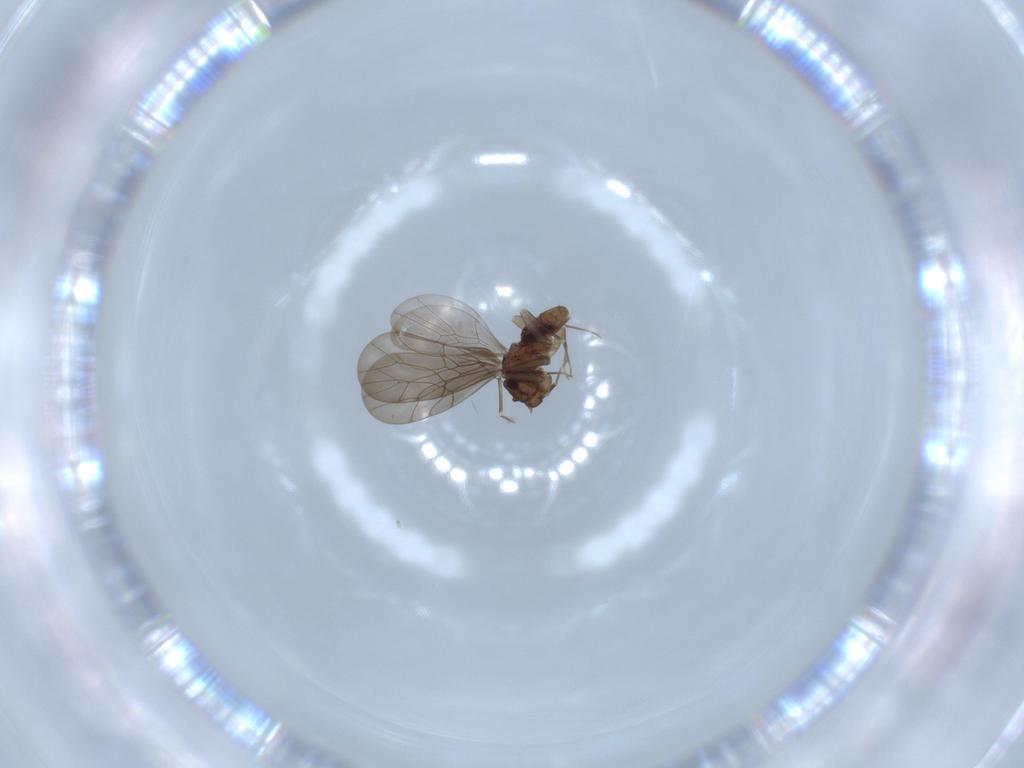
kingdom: Animalia
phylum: Arthropoda
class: Insecta
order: Psocodea
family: Lepidopsocidae
